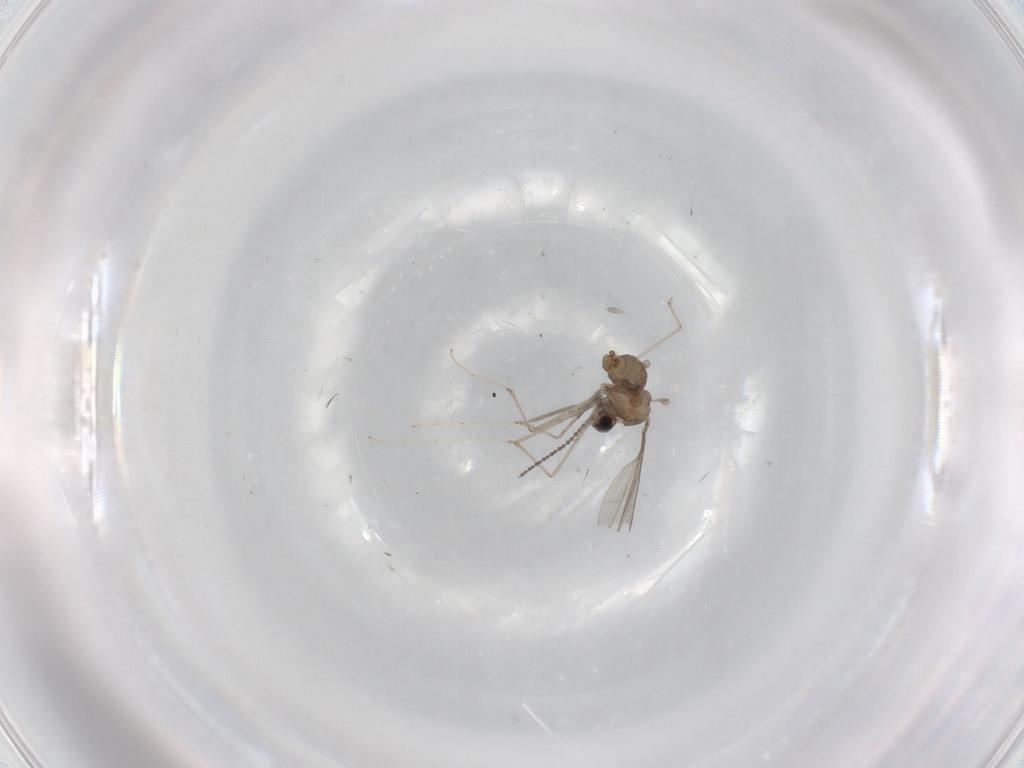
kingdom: Animalia
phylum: Arthropoda
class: Insecta
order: Diptera
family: Cecidomyiidae
